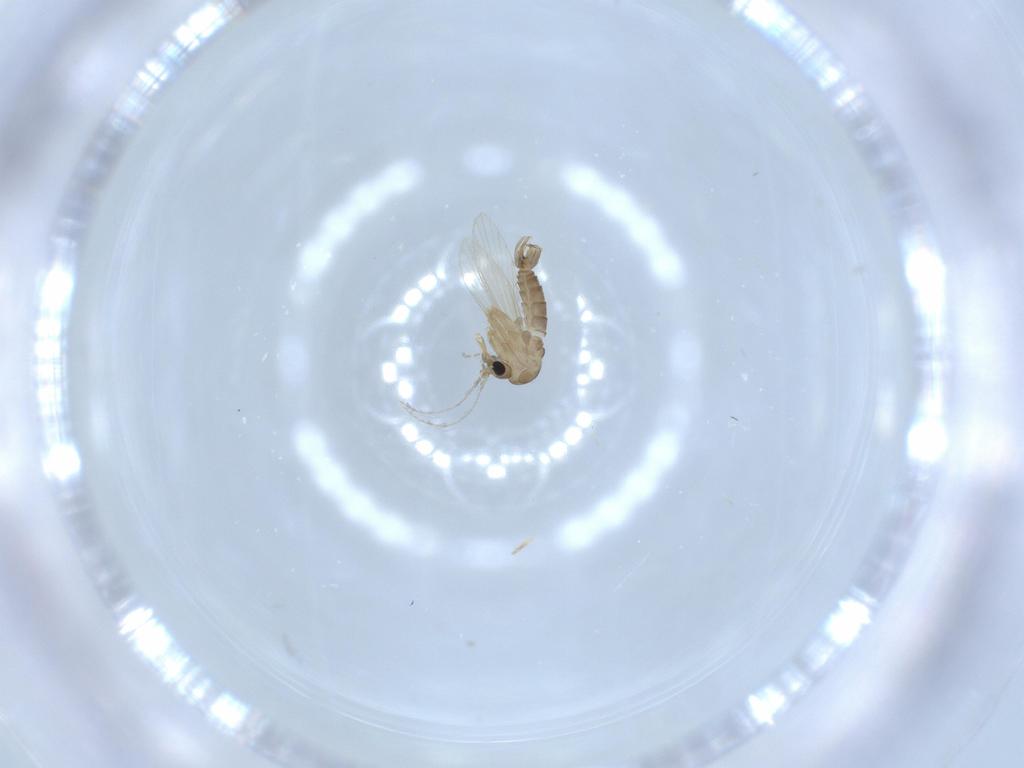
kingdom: Animalia
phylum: Arthropoda
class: Insecta
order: Diptera
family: Psychodidae
